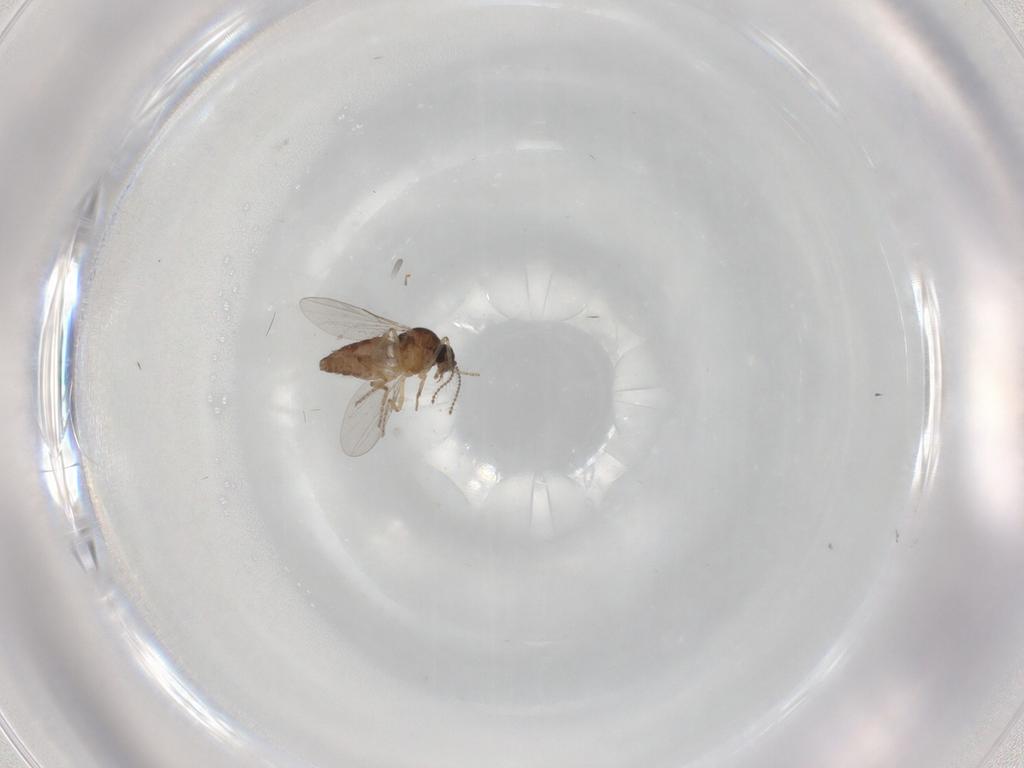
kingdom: Animalia
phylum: Arthropoda
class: Insecta
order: Diptera
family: Ceratopogonidae
